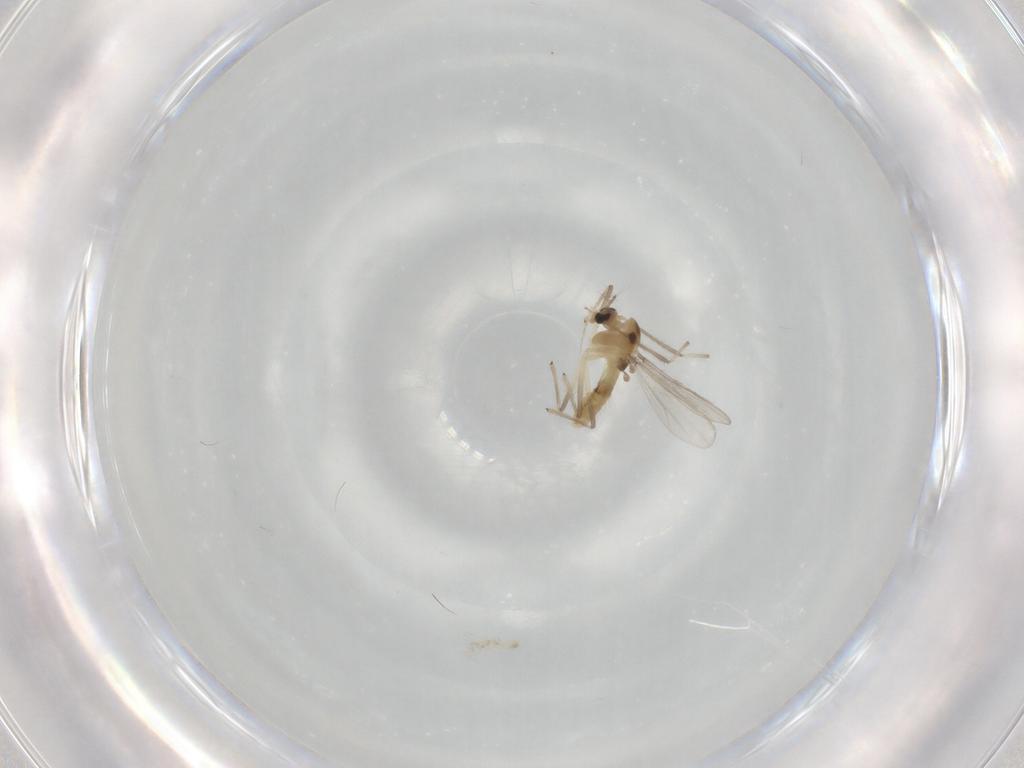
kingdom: Animalia
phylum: Arthropoda
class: Insecta
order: Diptera
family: Chironomidae
